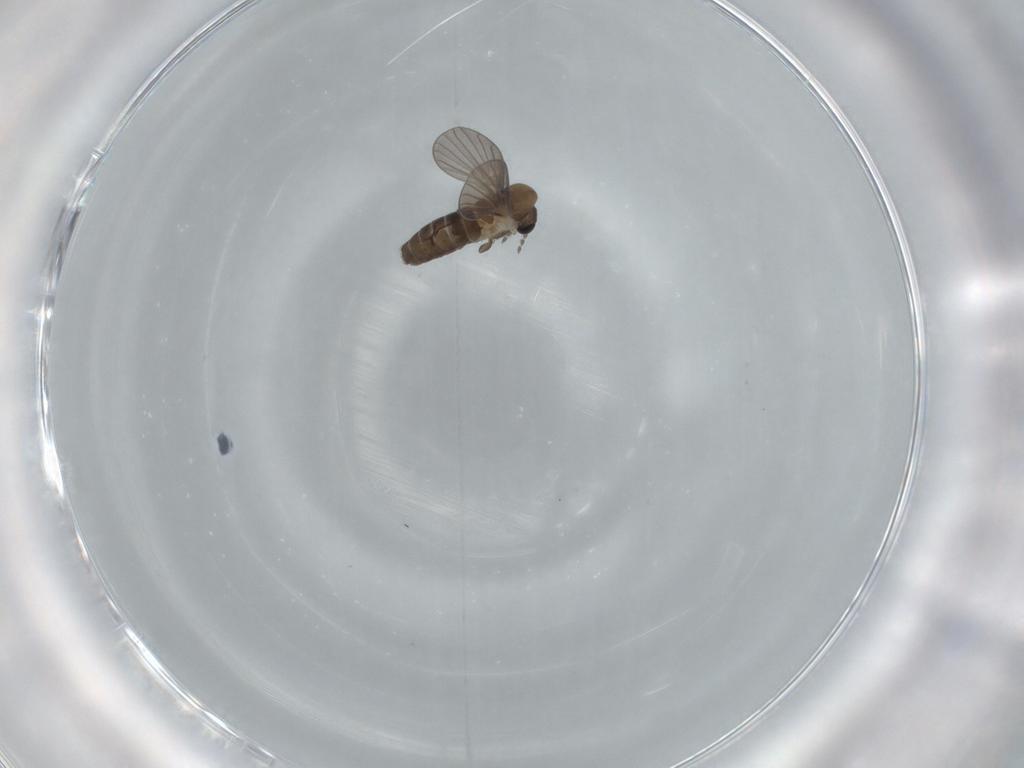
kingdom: Animalia
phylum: Arthropoda
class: Insecta
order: Diptera
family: Psychodidae
